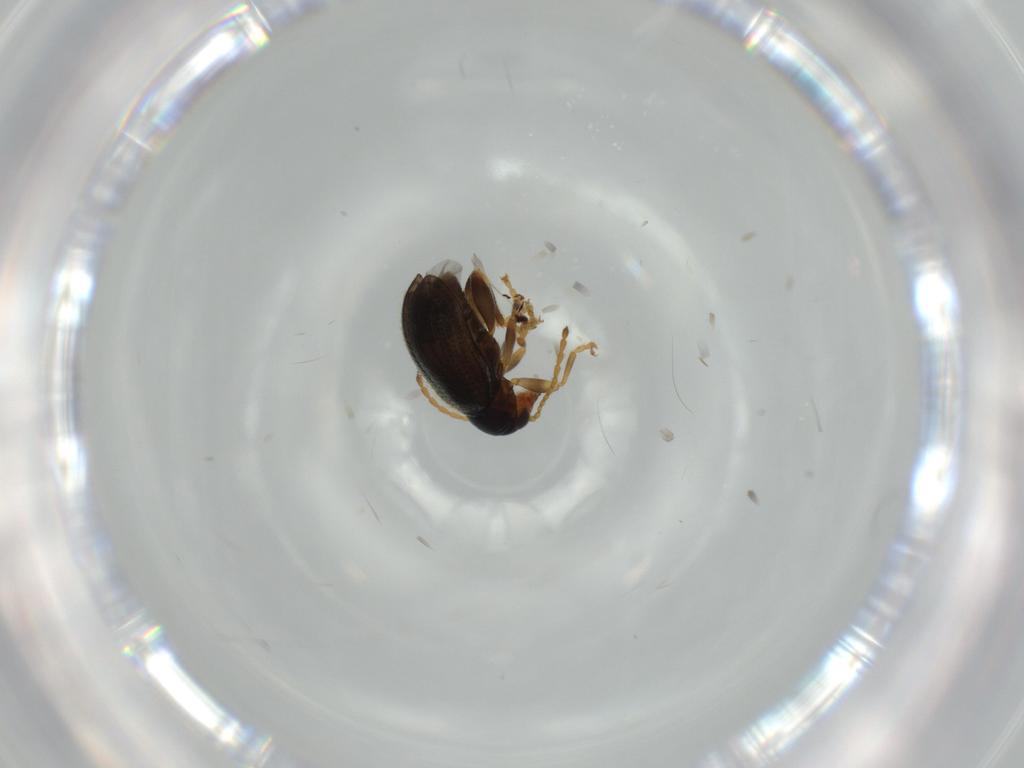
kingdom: Animalia
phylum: Arthropoda
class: Insecta
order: Coleoptera
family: Chrysomelidae
